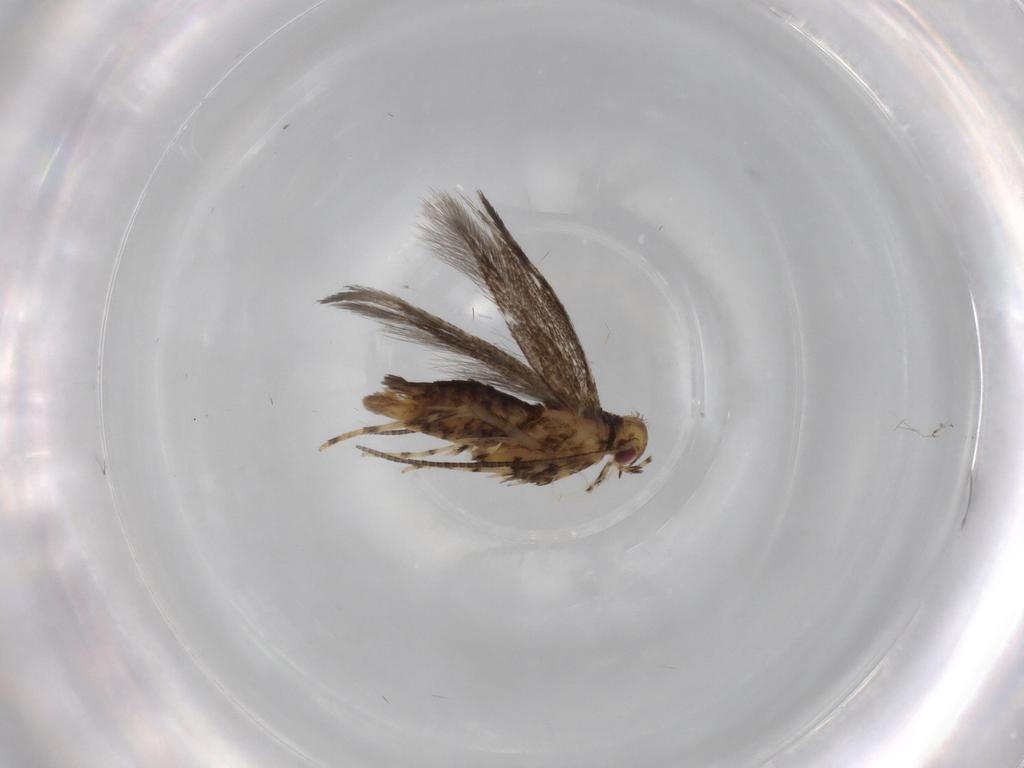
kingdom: Animalia
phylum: Arthropoda
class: Insecta
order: Lepidoptera
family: Gracillariidae
